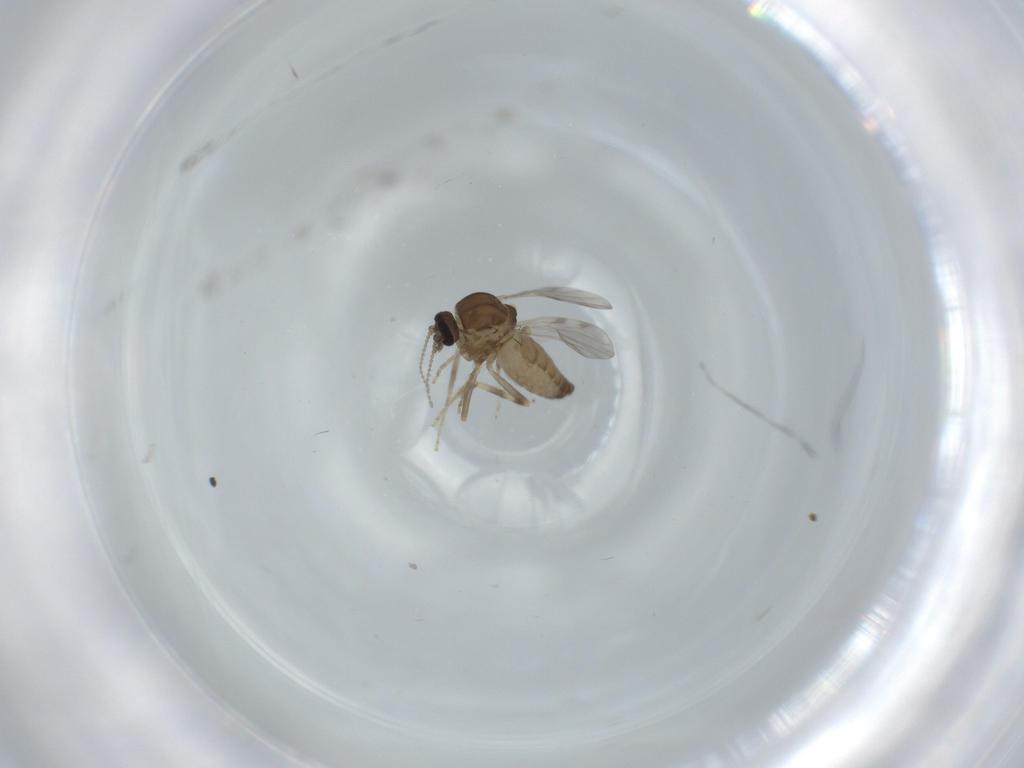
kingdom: Animalia
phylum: Arthropoda
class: Insecta
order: Diptera
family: Ceratopogonidae
